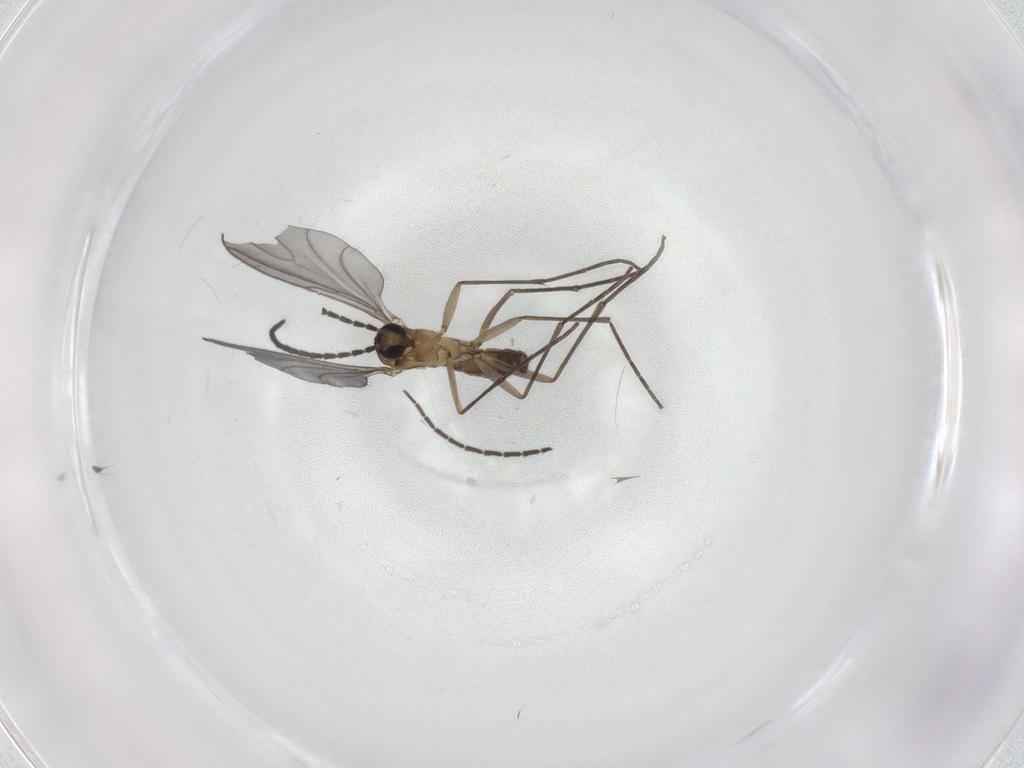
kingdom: Animalia
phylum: Arthropoda
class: Insecta
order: Diptera
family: Sciaridae
